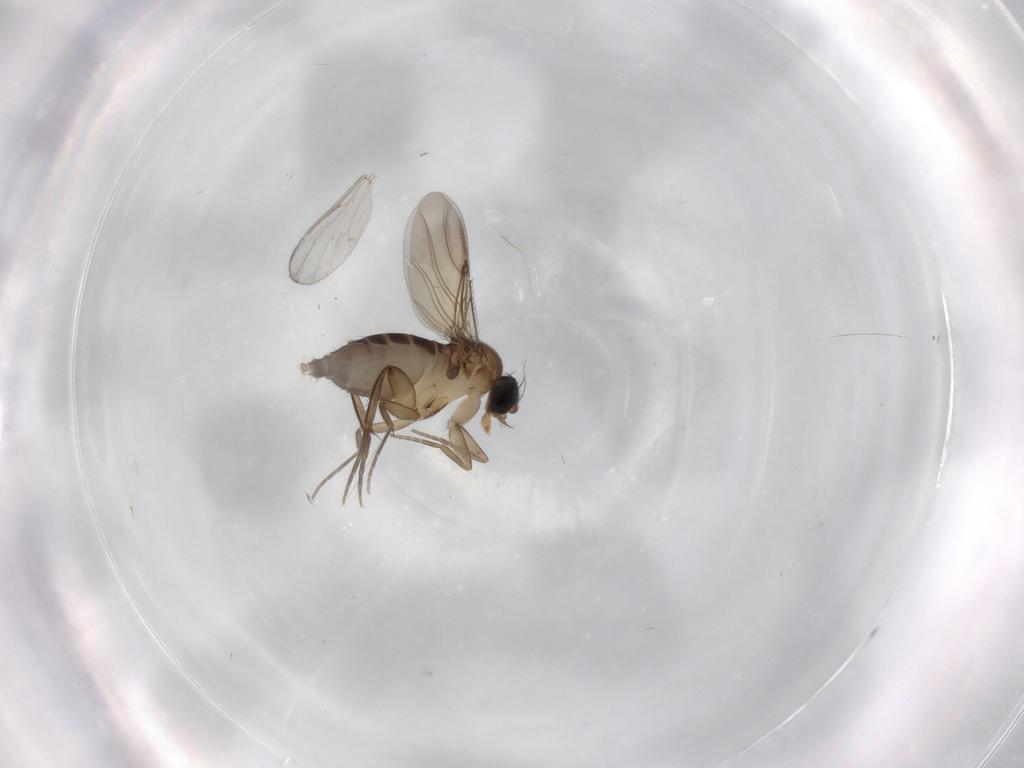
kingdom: Animalia
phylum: Arthropoda
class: Insecta
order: Diptera
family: Phoridae
